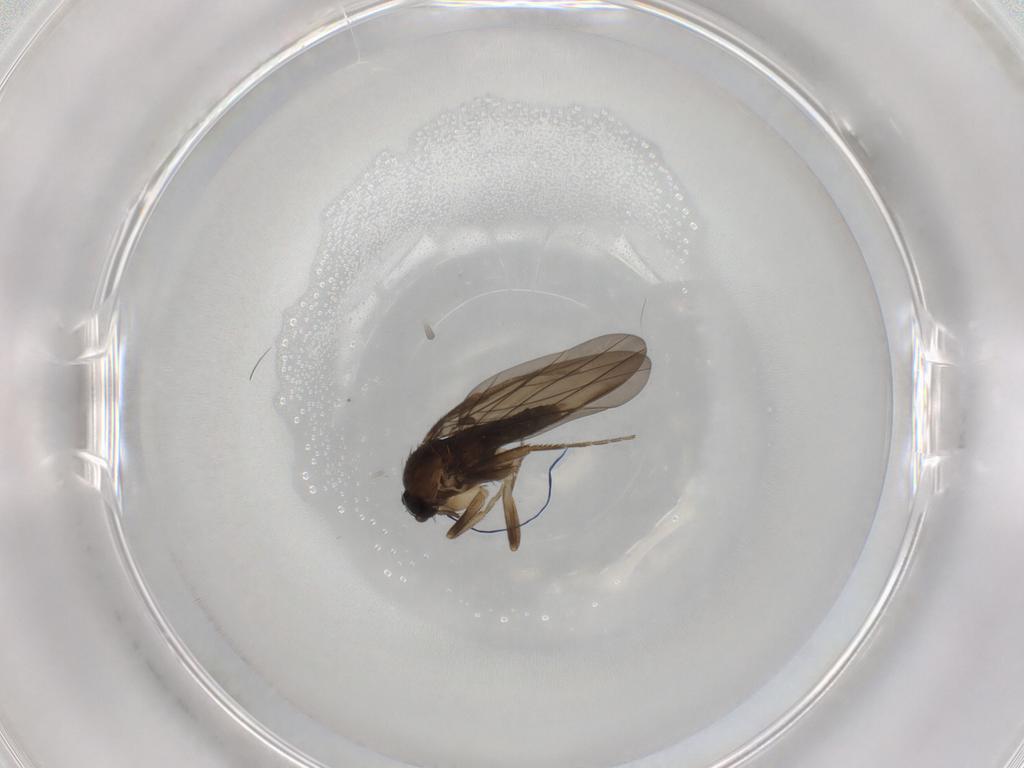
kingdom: Animalia
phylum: Arthropoda
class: Insecta
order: Diptera
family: Phoridae
